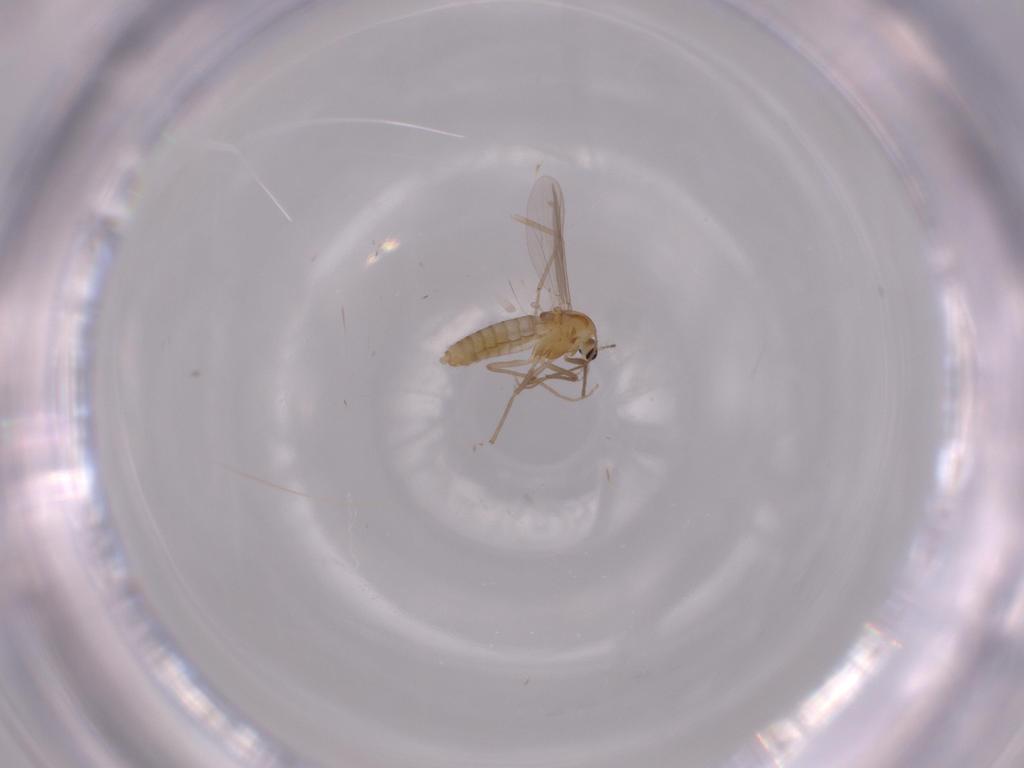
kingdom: Animalia
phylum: Arthropoda
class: Insecta
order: Diptera
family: Chironomidae
